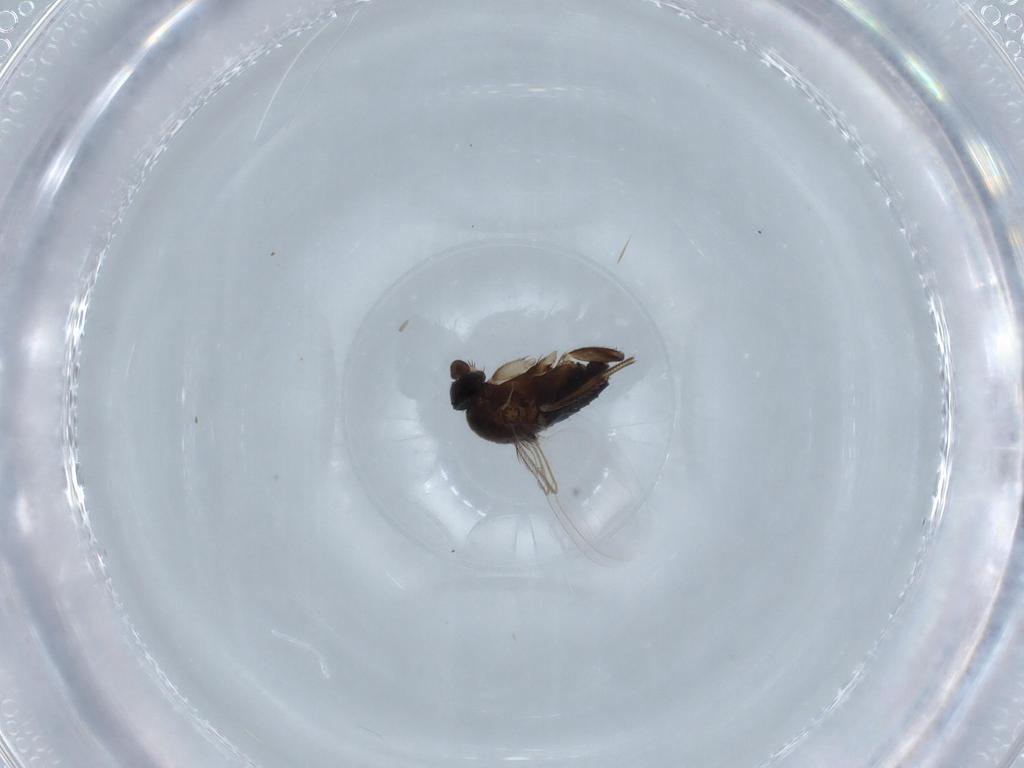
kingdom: Animalia
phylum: Arthropoda
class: Insecta
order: Diptera
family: Phoridae
